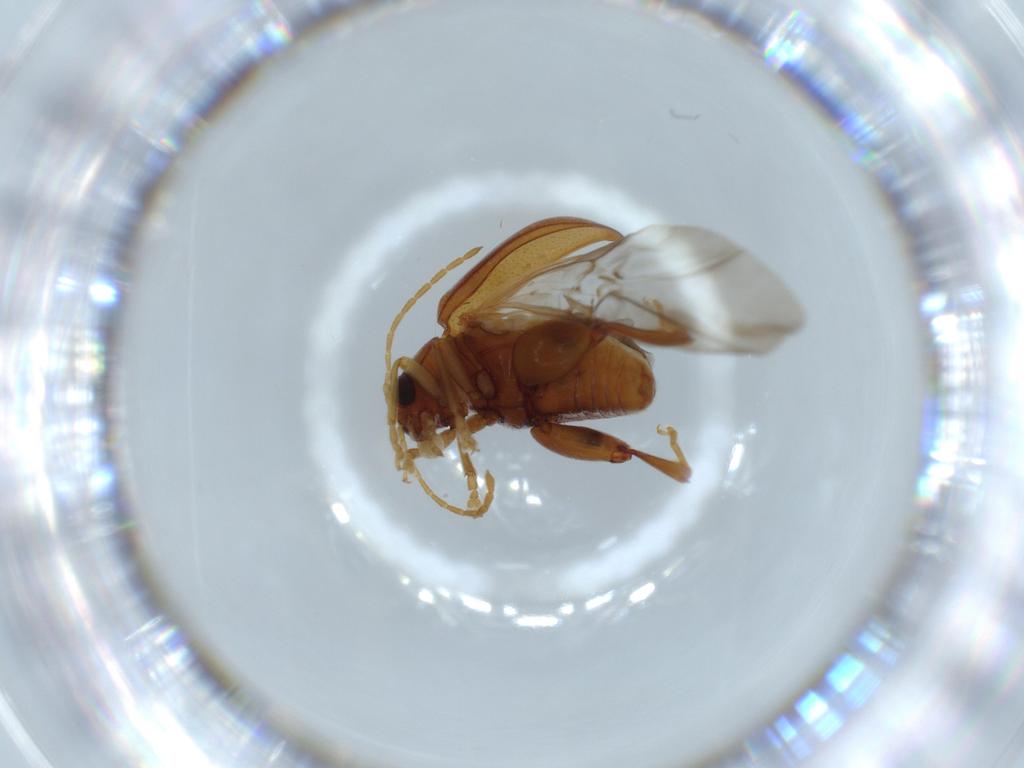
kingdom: Animalia
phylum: Arthropoda
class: Insecta
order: Coleoptera
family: Chrysomelidae
